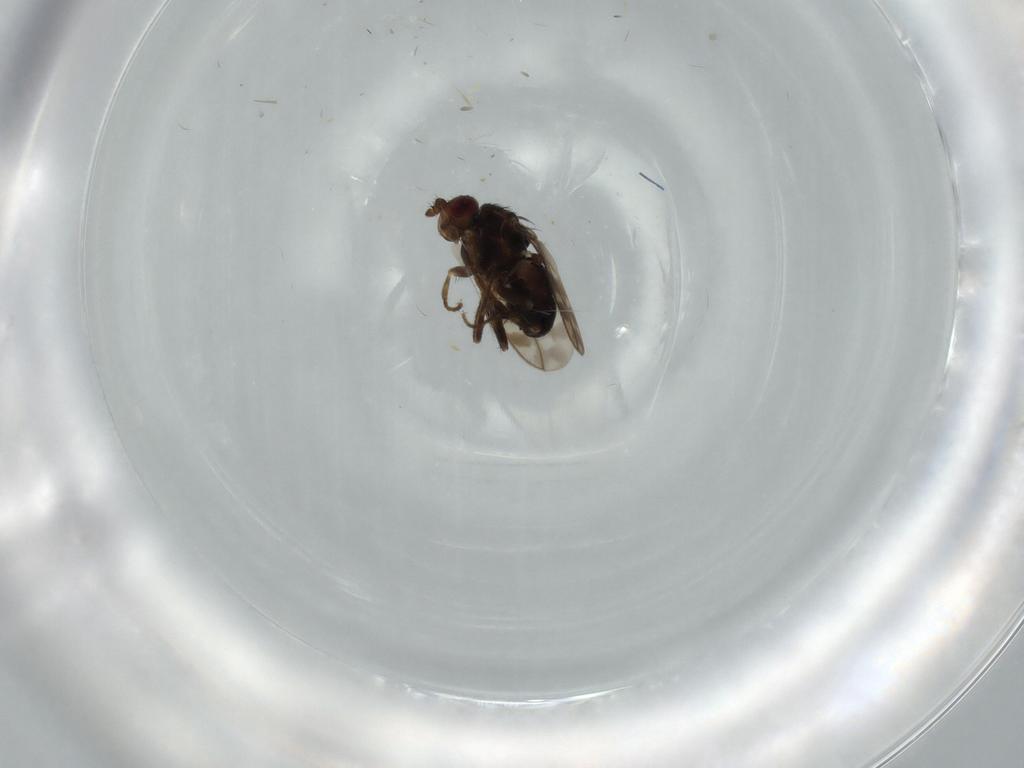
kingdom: Animalia
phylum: Arthropoda
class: Insecta
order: Diptera
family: Sphaeroceridae
